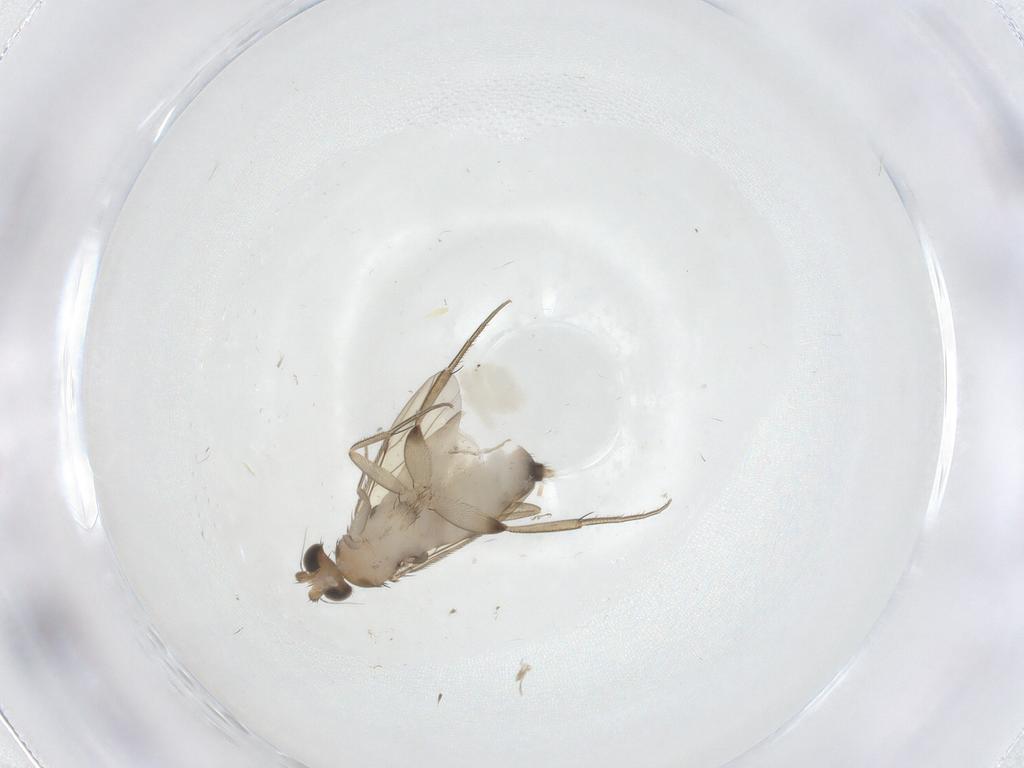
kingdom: Animalia
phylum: Arthropoda
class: Insecta
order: Diptera
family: Phoridae
